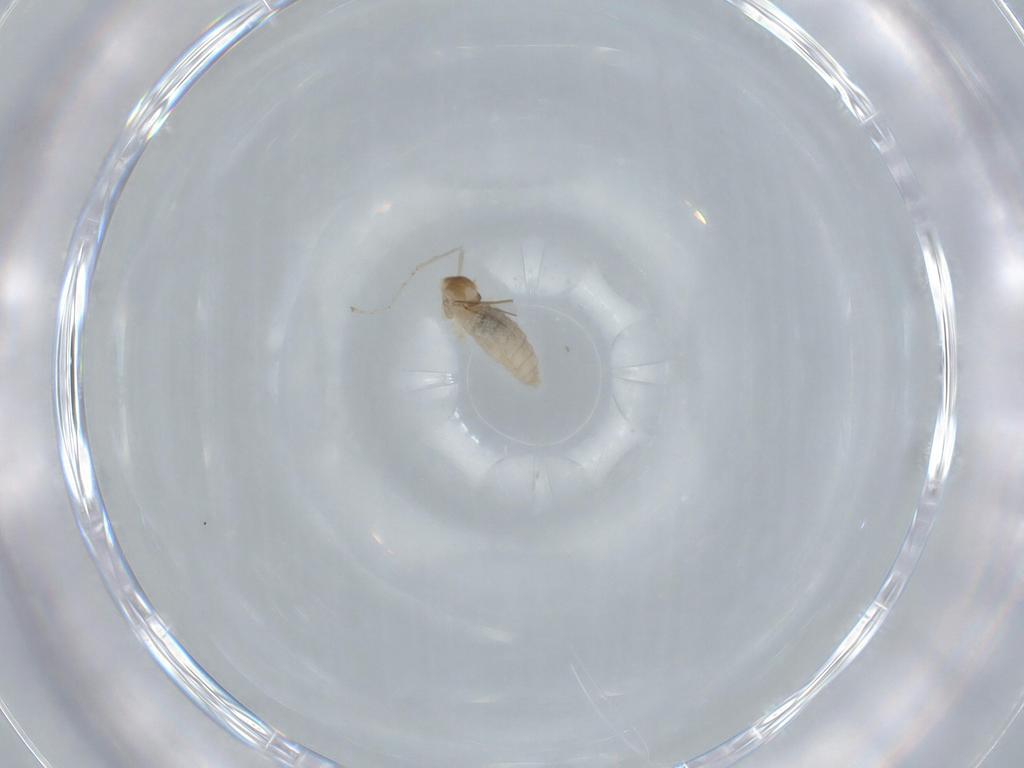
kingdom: Animalia
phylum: Arthropoda
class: Insecta
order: Diptera
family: Cecidomyiidae
